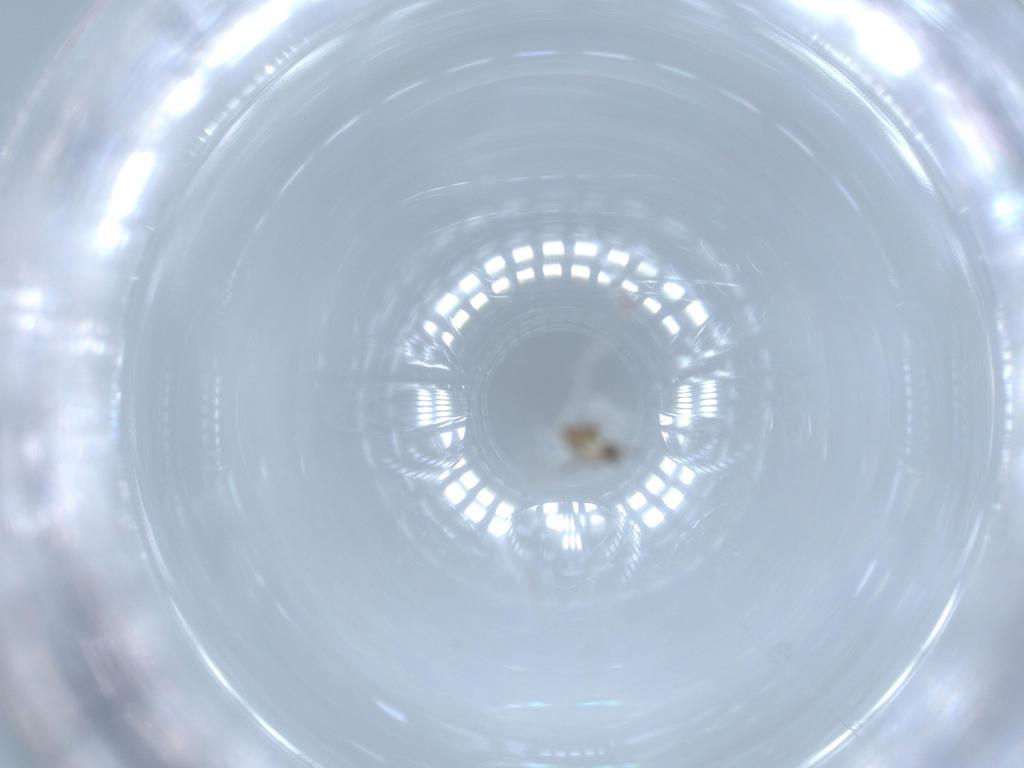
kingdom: Animalia
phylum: Arthropoda
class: Insecta
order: Diptera
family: Cecidomyiidae
